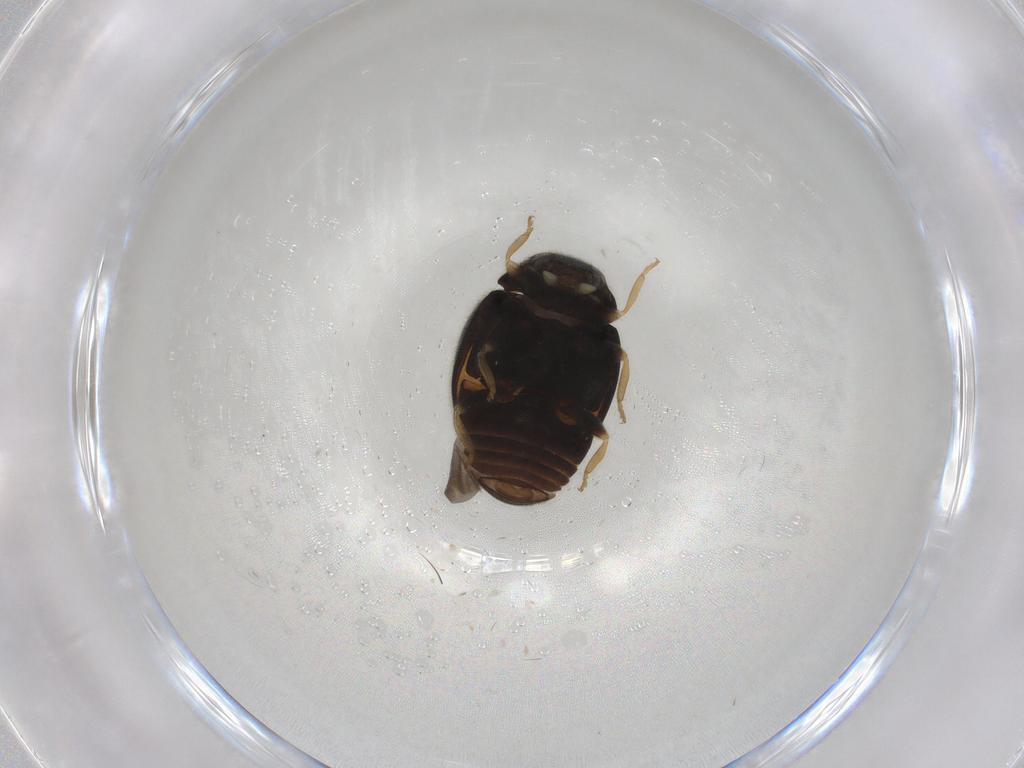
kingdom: Animalia
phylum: Arthropoda
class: Insecta
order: Coleoptera
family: Coccinellidae
